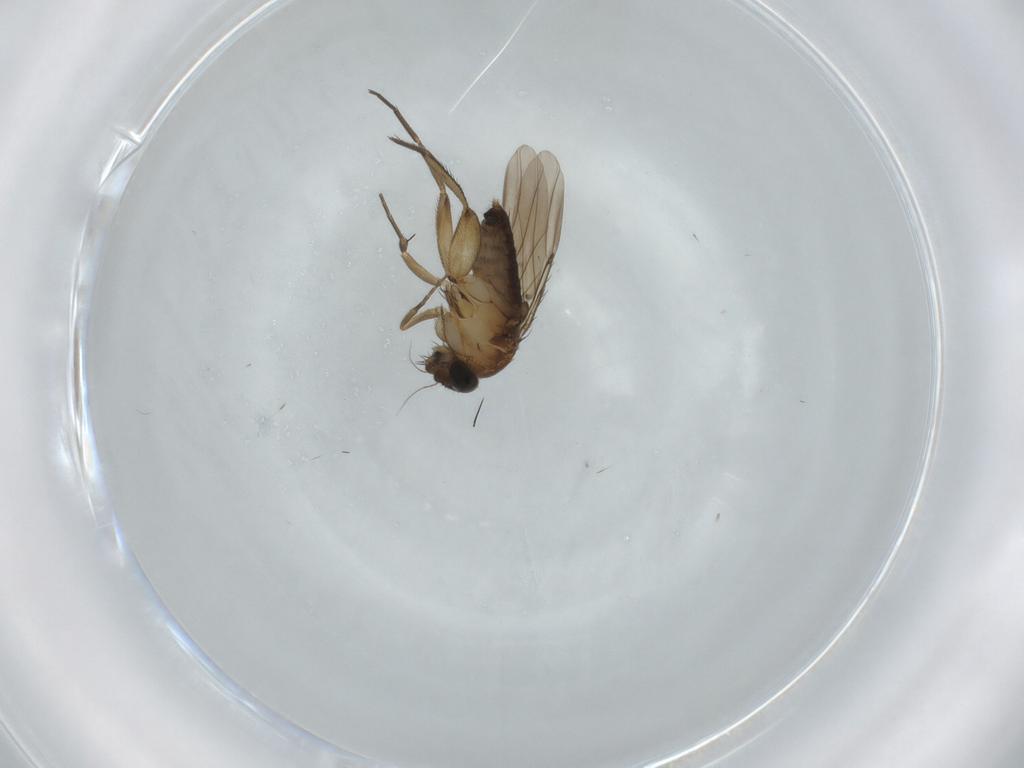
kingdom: Animalia
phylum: Arthropoda
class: Insecta
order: Diptera
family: Phoridae
